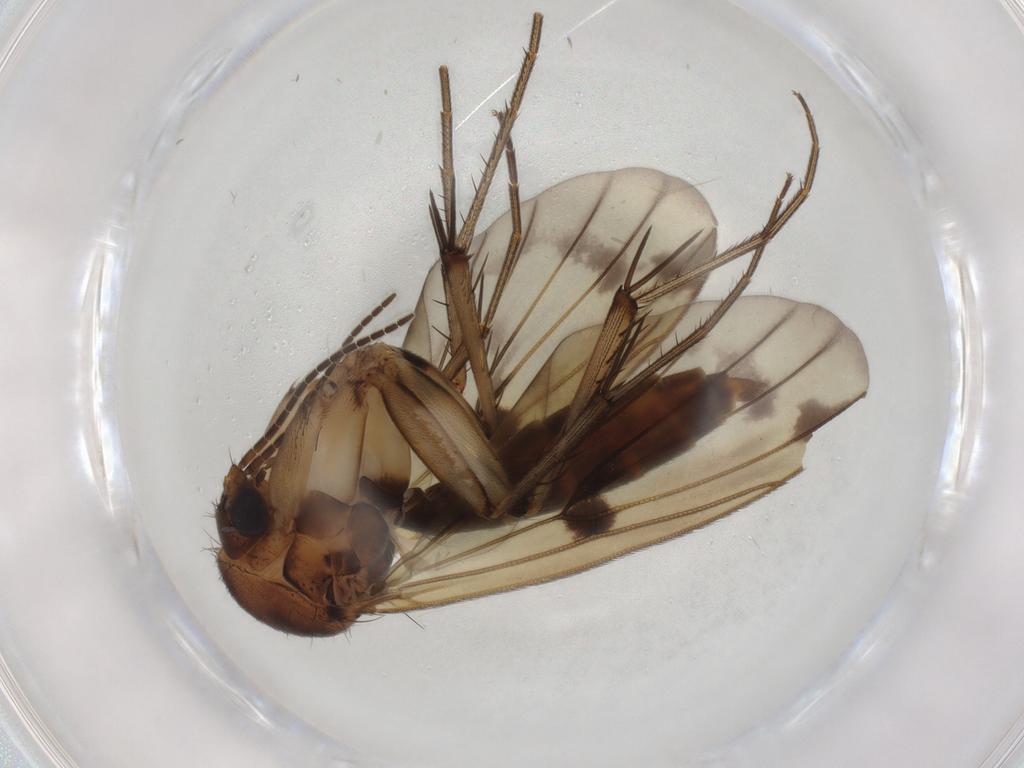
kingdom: Animalia
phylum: Arthropoda
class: Insecta
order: Diptera
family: Mycetophilidae
